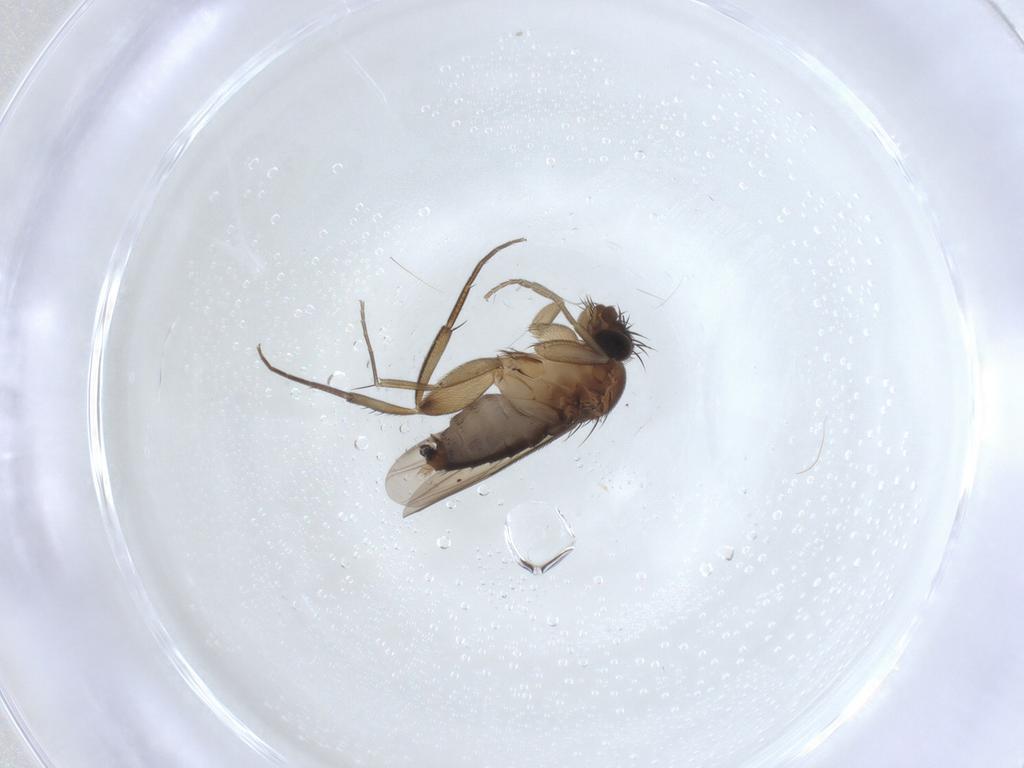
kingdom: Animalia
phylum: Arthropoda
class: Insecta
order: Diptera
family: Phoridae
